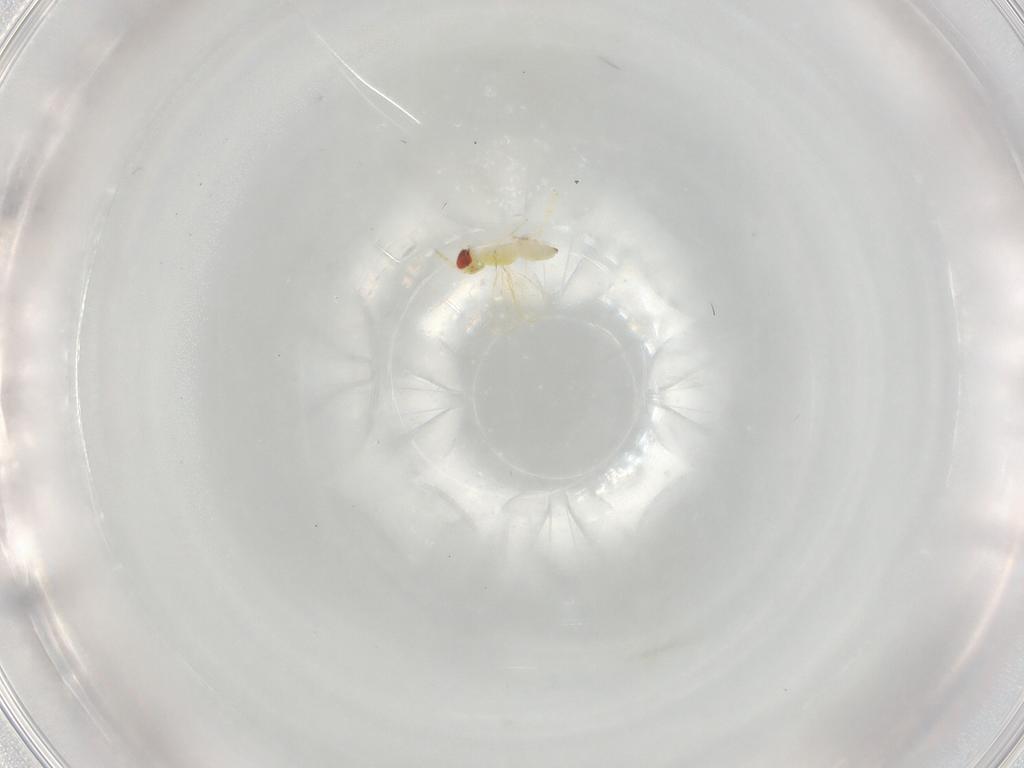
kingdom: Animalia
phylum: Arthropoda
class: Insecta
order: Hymenoptera
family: Eulophidae
